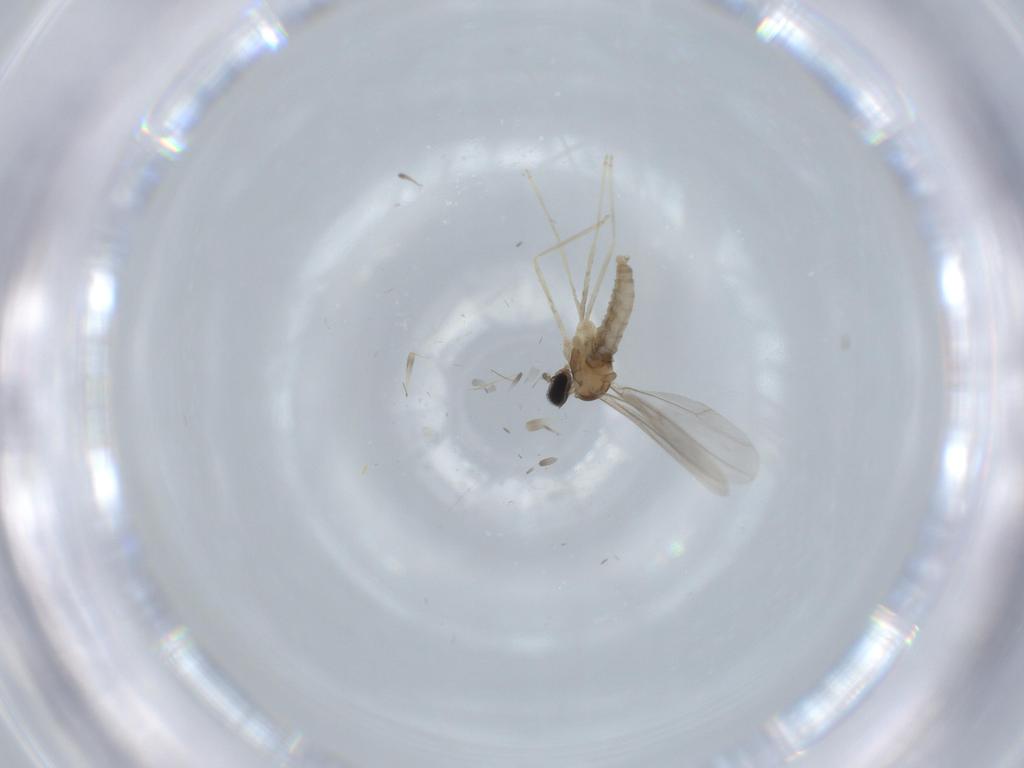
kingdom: Animalia
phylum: Arthropoda
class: Insecta
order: Diptera
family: Cecidomyiidae
